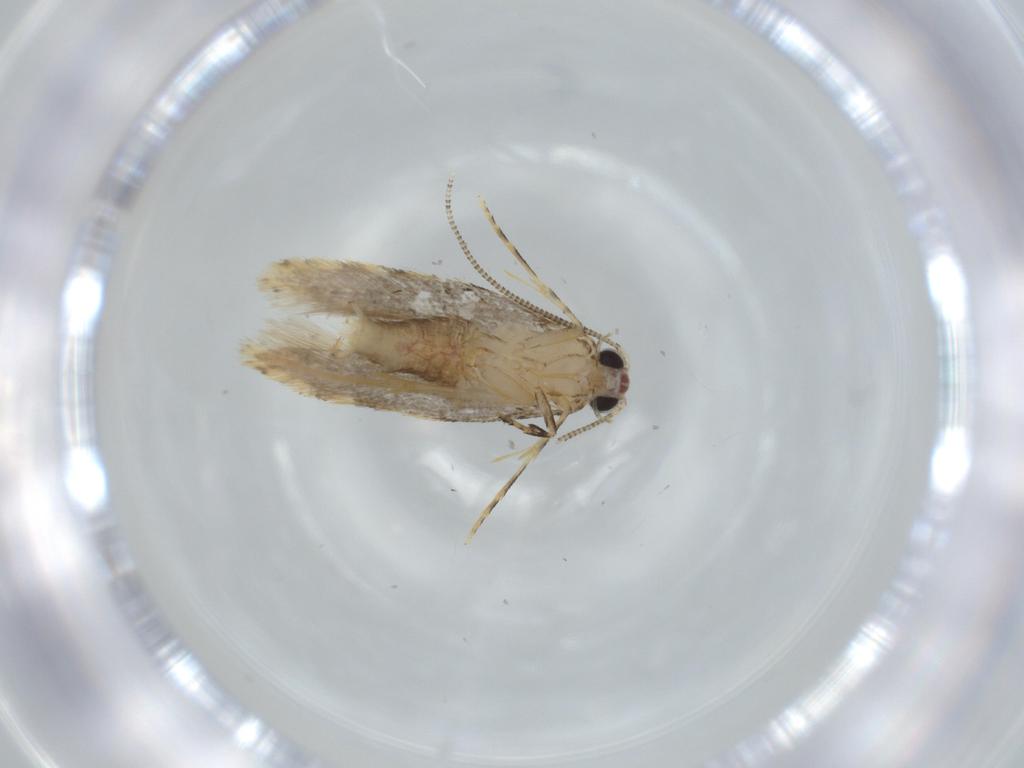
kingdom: Animalia
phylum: Arthropoda
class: Insecta
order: Lepidoptera
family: Tineidae
